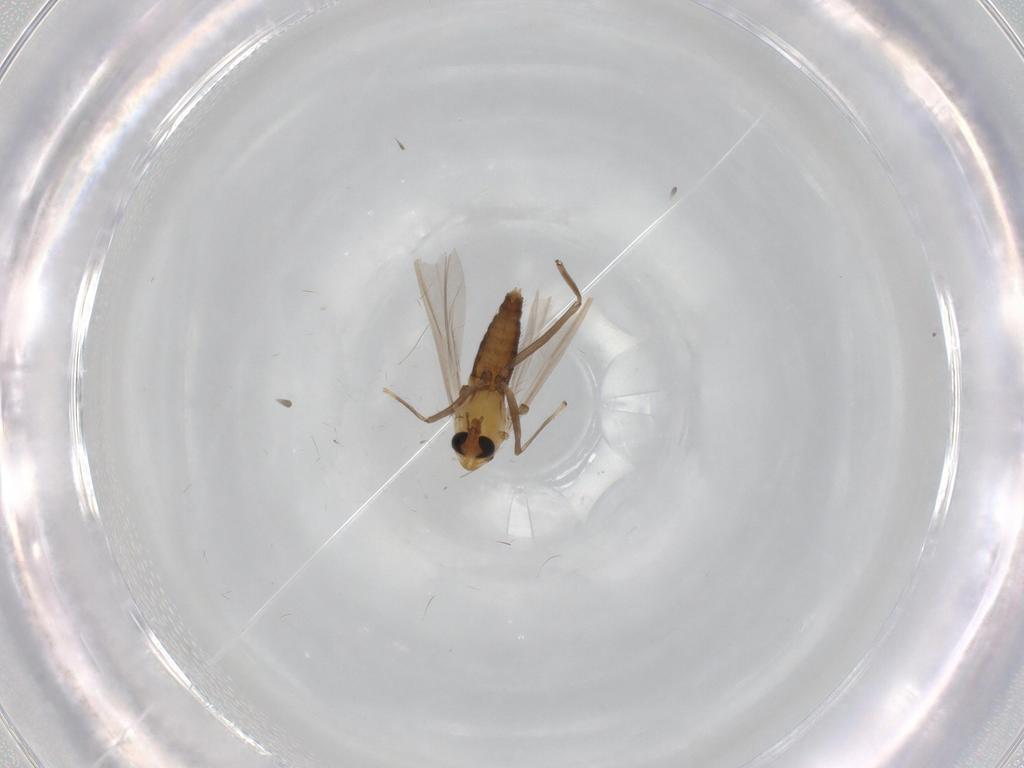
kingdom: Animalia
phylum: Arthropoda
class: Insecta
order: Diptera
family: Chironomidae
